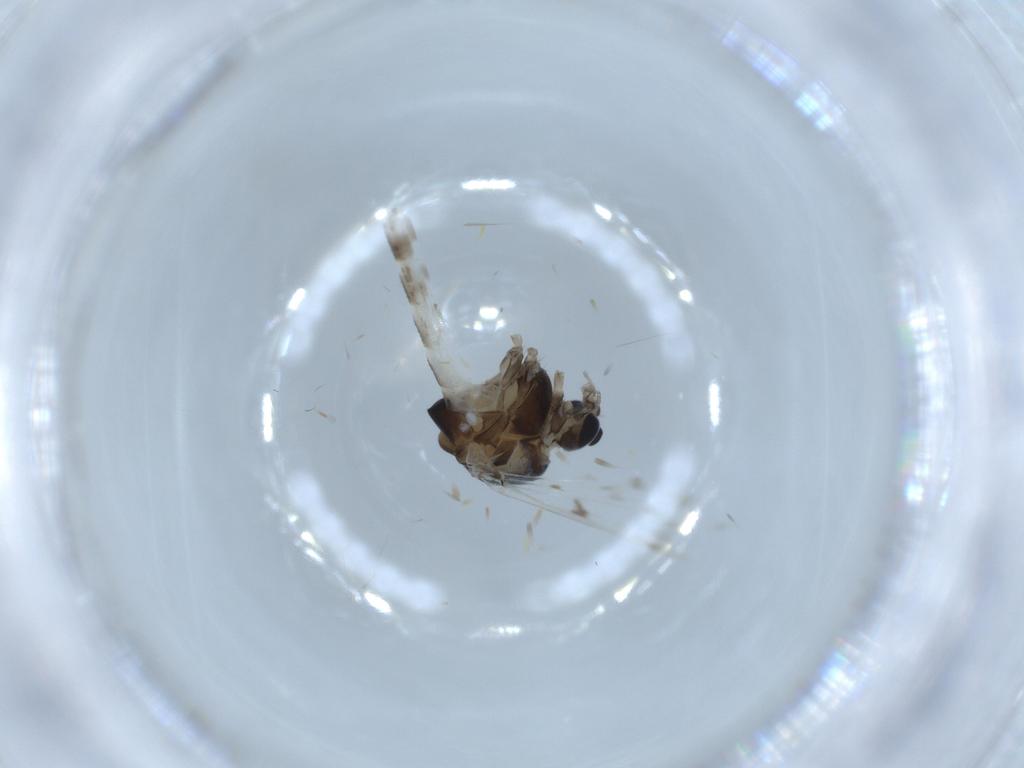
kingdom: Animalia
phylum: Arthropoda
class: Insecta
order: Diptera
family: Chironomidae
